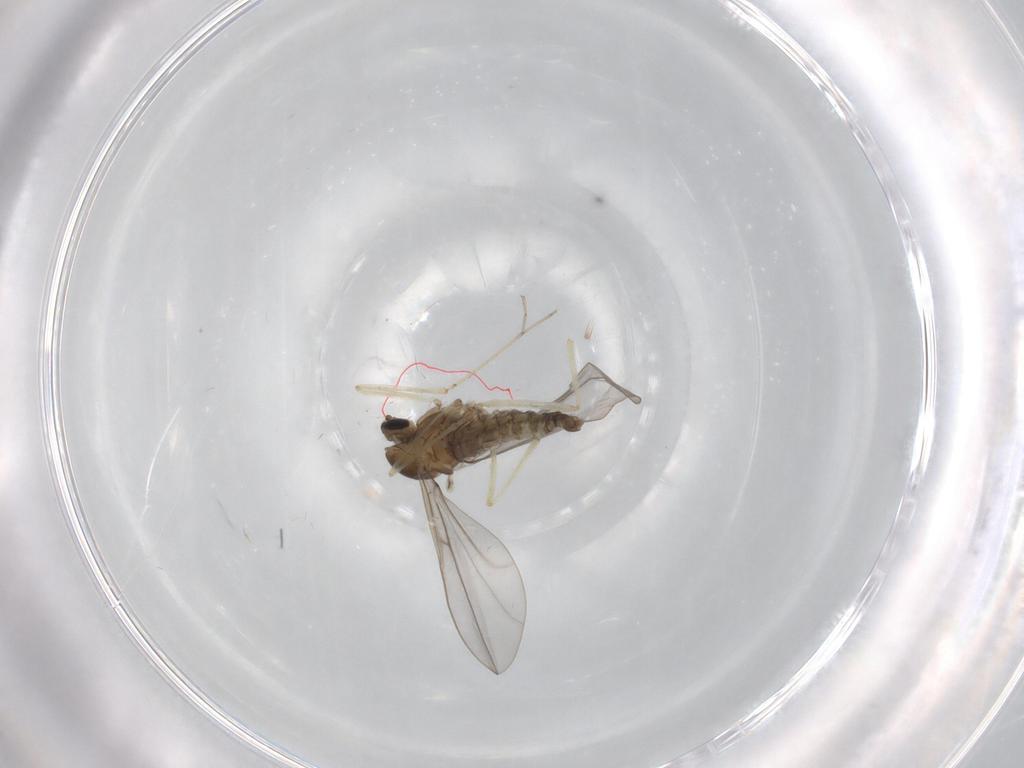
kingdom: Animalia
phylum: Arthropoda
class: Insecta
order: Diptera
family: Cecidomyiidae
